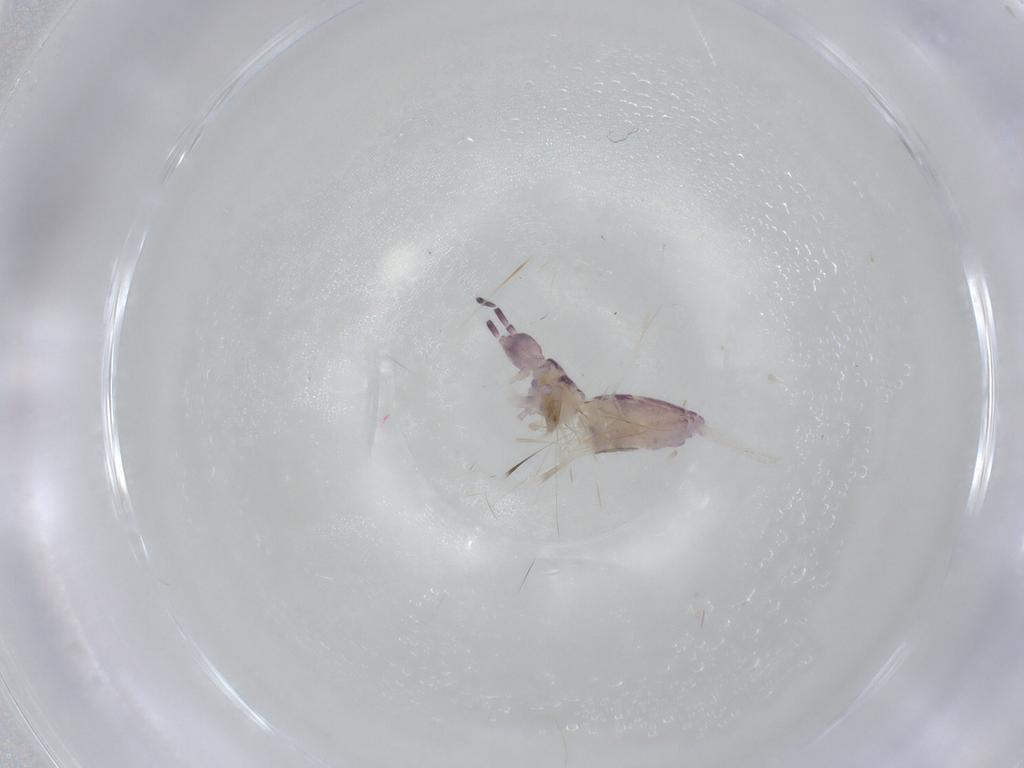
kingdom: Animalia
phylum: Arthropoda
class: Collembola
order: Poduromorpha
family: Hypogastruridae
